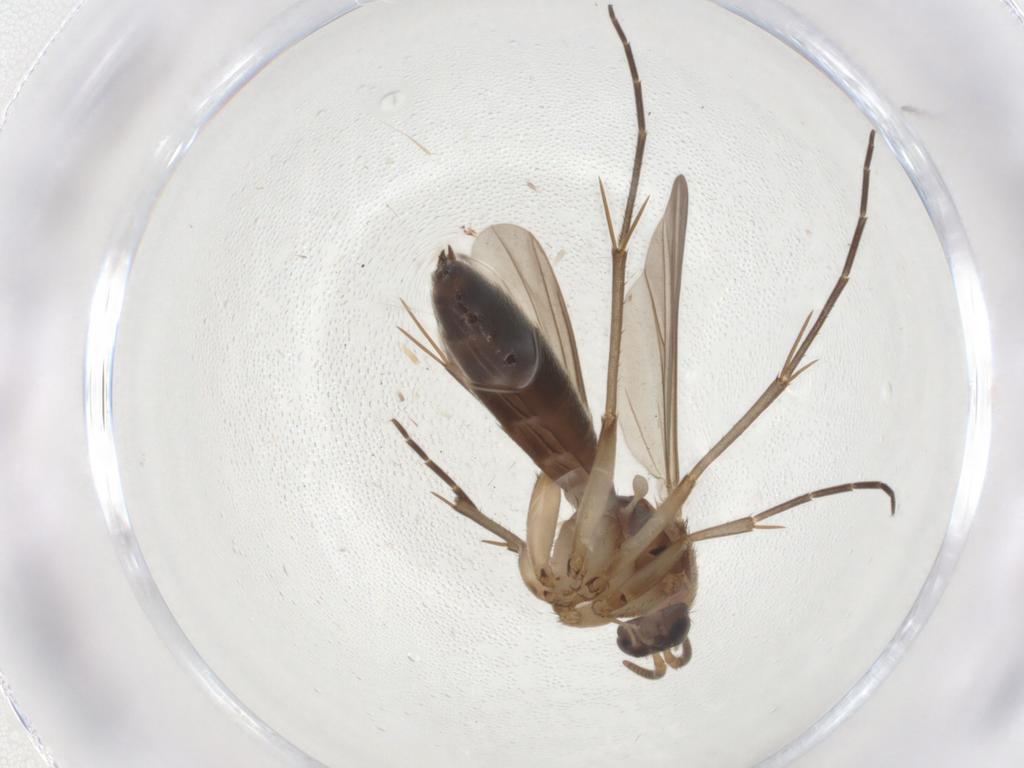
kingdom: Animalia
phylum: Arthropoda
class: Insecta
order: Diptera
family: Mycetophilidae
